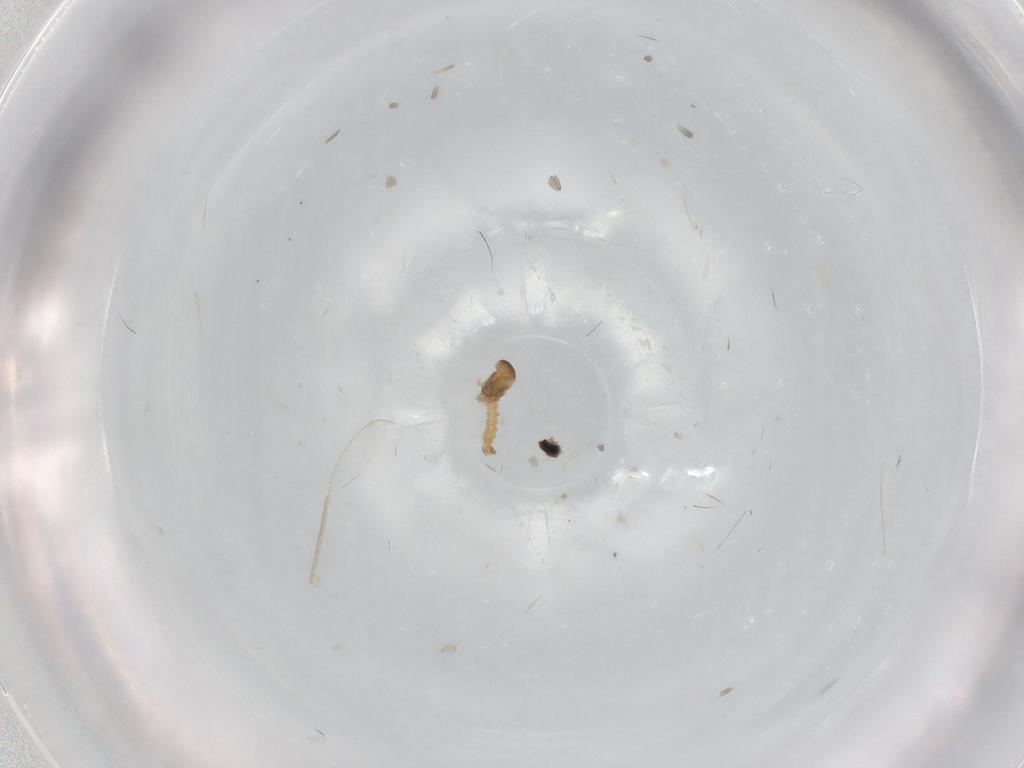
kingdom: Animalia
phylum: Arthropoda
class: Insecta
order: Diptera
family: Cecidomyiidae
